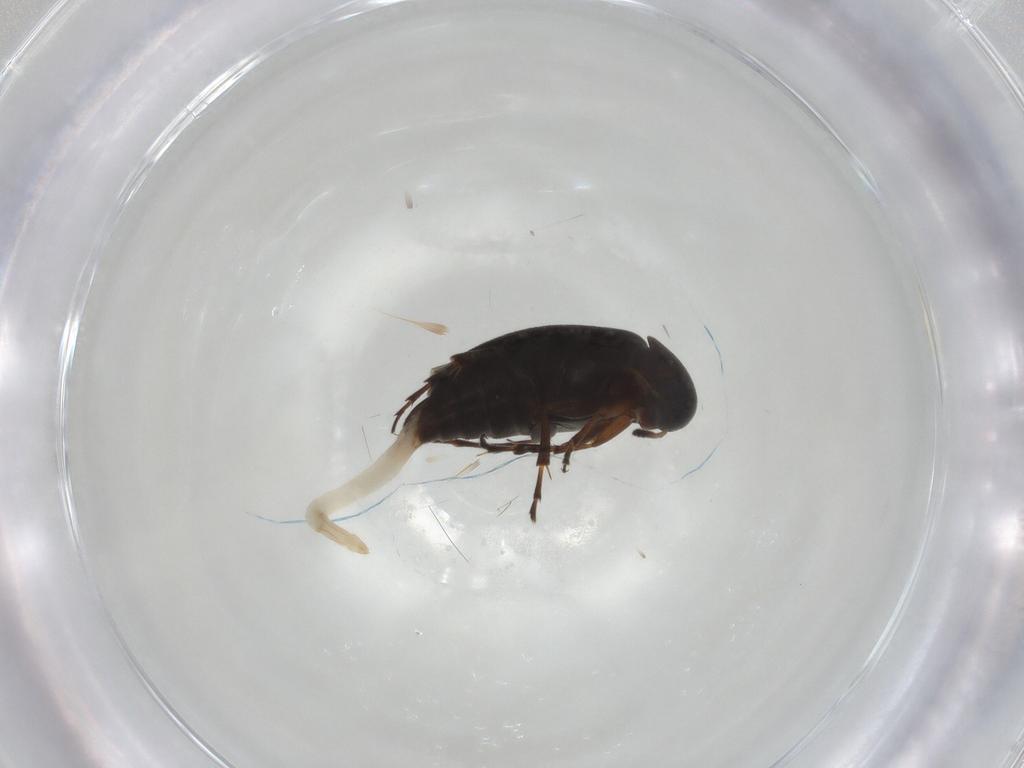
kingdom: Animalia
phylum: Arthropoda
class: Insecta
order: Coleoptera
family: Scraptiidae
